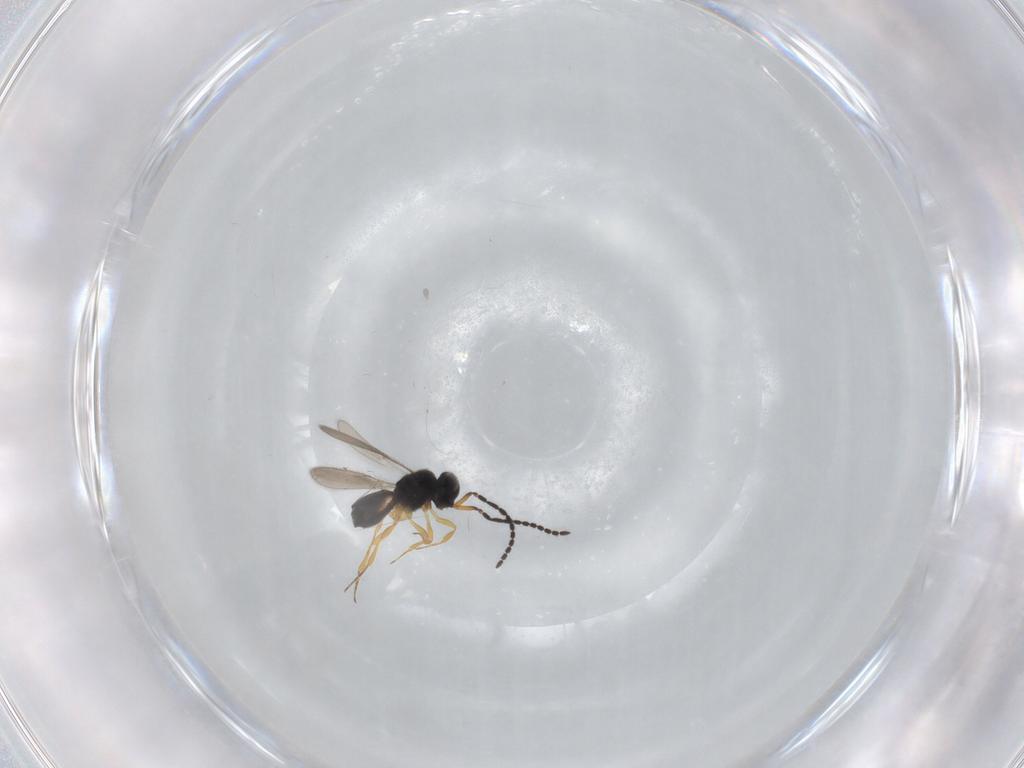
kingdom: Animalia
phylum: Arthropoda
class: Insecta
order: Hymenoptera
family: Scelionidae
